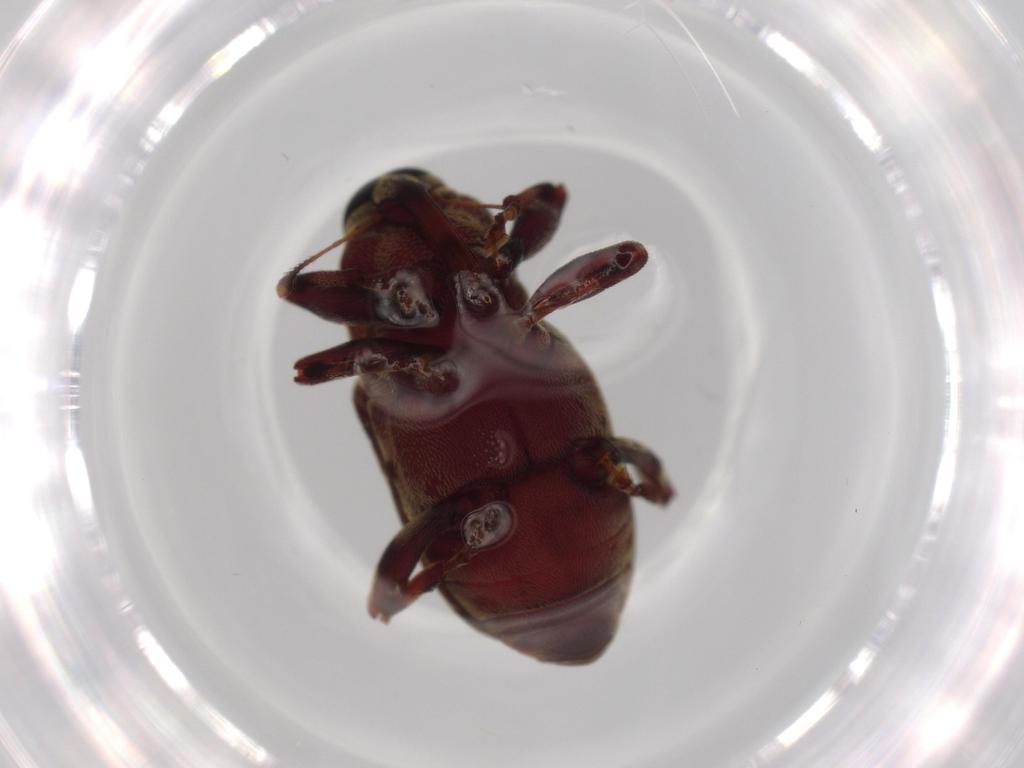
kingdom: Animalia
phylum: Arthropoda
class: Insecta
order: Coleoptera
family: Curculionidae
